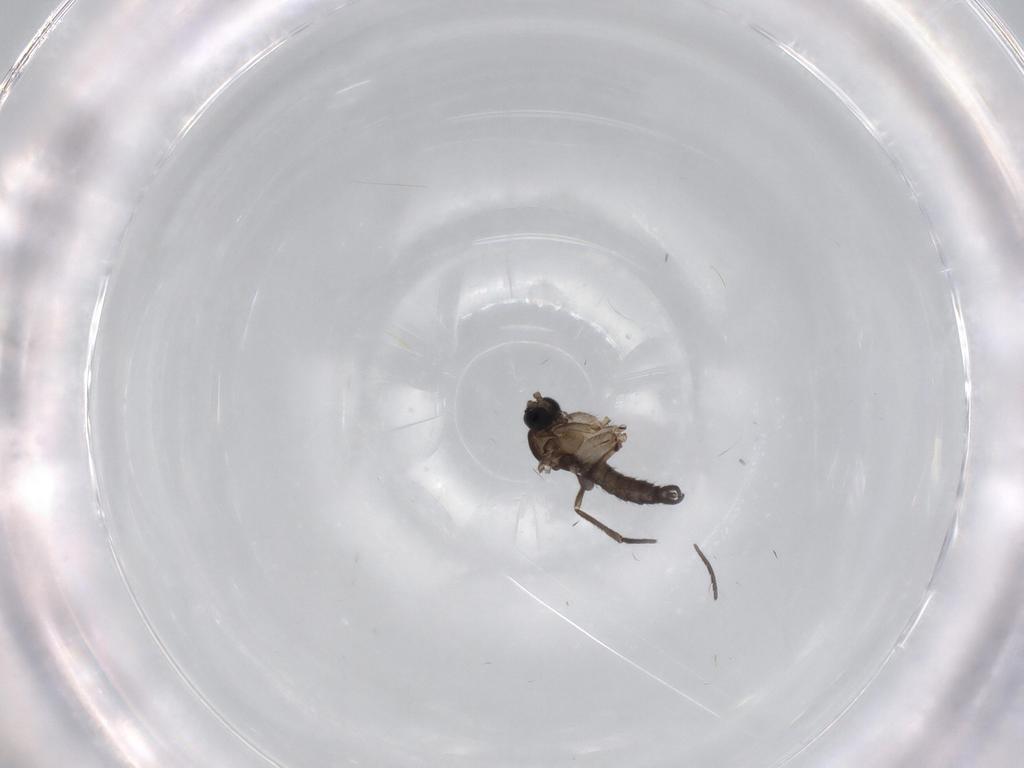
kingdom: Animalia
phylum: Arthropoda
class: Insecta
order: Diptera
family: Sciaridae
